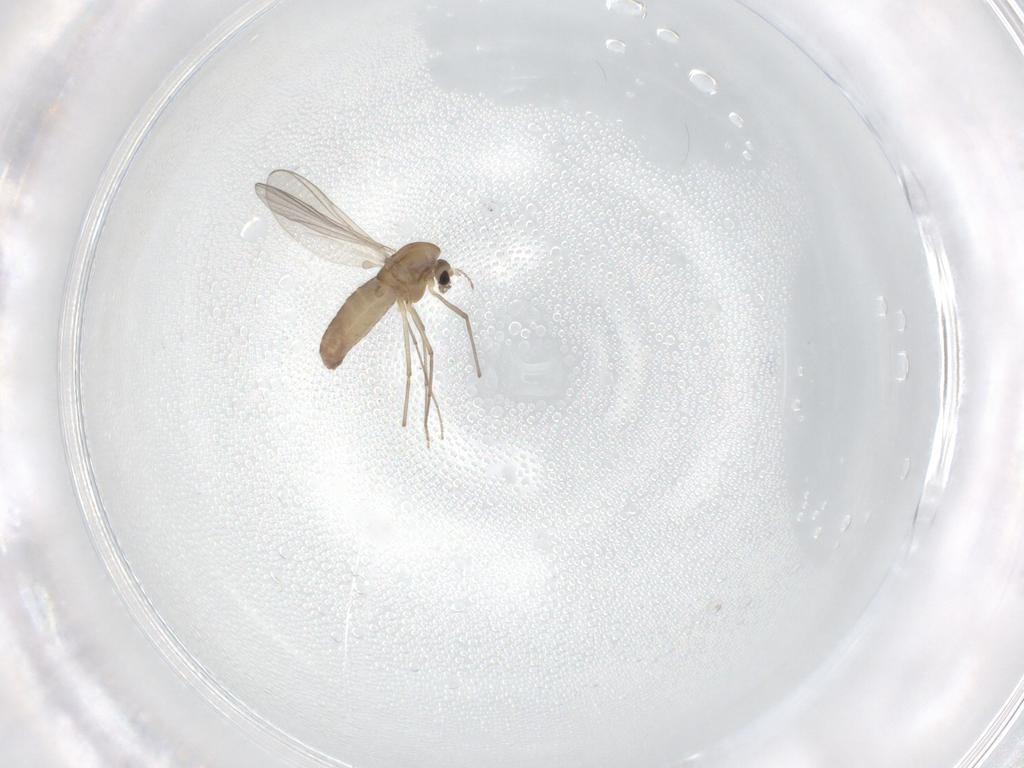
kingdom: Animalia
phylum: Arthropoda
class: Insecta
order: Diptera
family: Chironomidae
